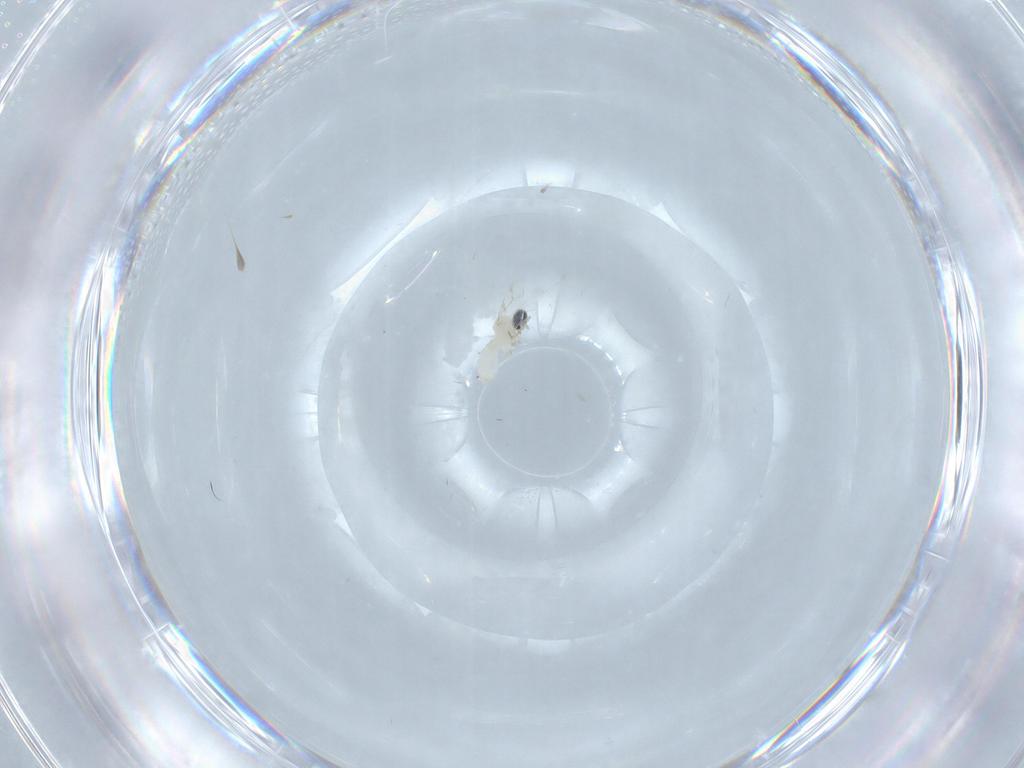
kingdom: Animalia
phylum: Arthropoda
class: Insecta
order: Diptera
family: Cecidomyiidae
